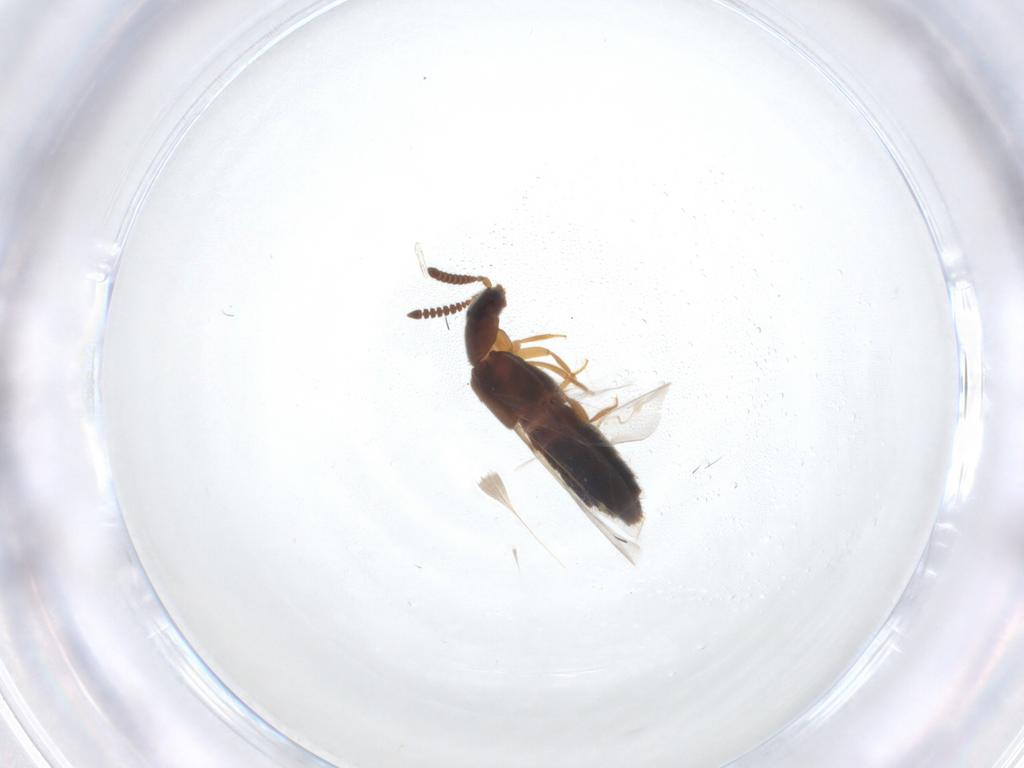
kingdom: Animalia
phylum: Arthropoda
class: Insecta
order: Coleoptera
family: Staphylinidae
